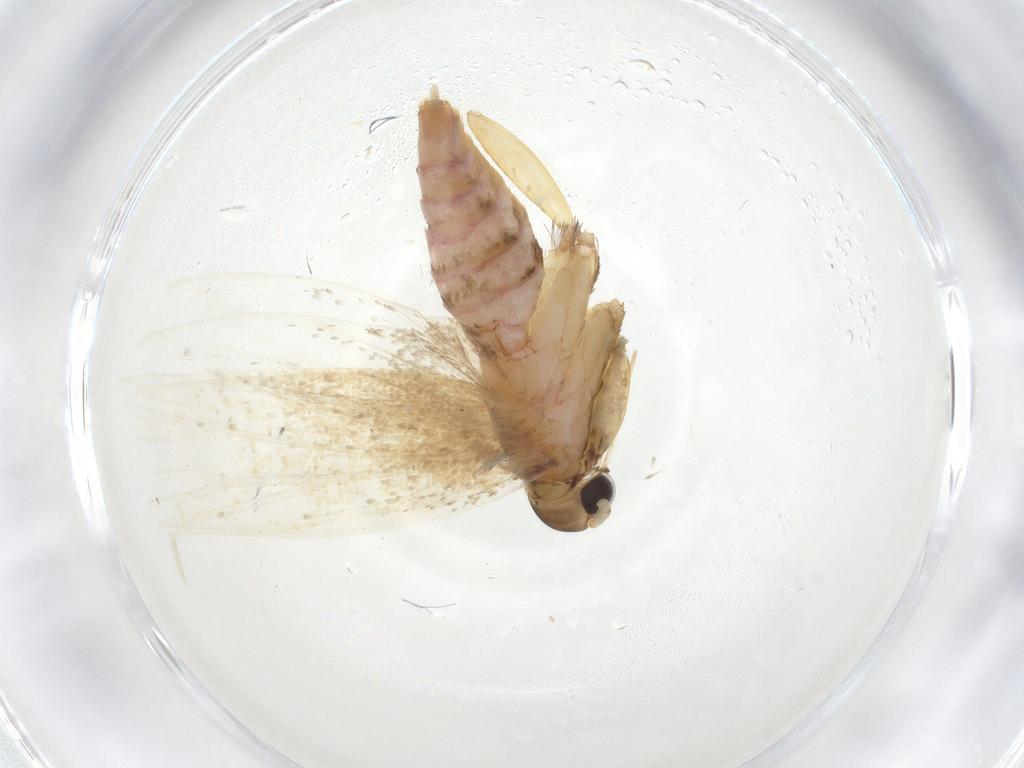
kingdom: Animalia
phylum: Arthropoda
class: Insecta
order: Lepidoptera
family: Lecithoceridae
